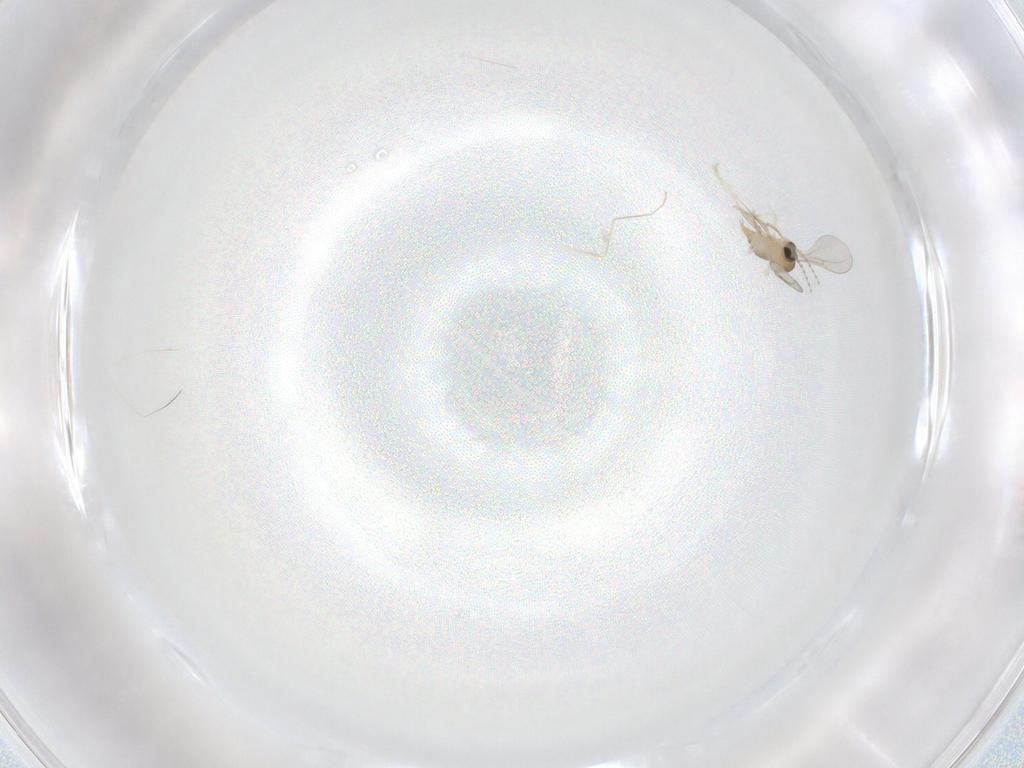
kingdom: Animalia
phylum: Arthropoda
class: Insecta
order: Diptera
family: Cecidomyiidae
